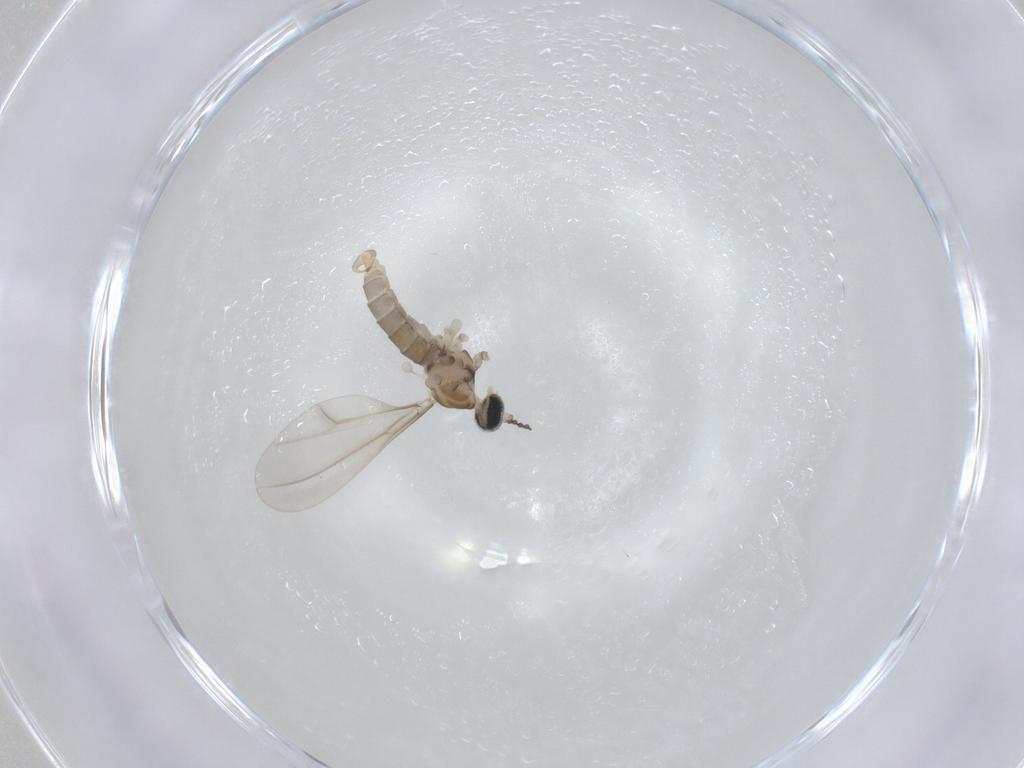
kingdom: Animalia
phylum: Arthropoda
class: Insecta
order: Diptera
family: Cecidomyiidae
